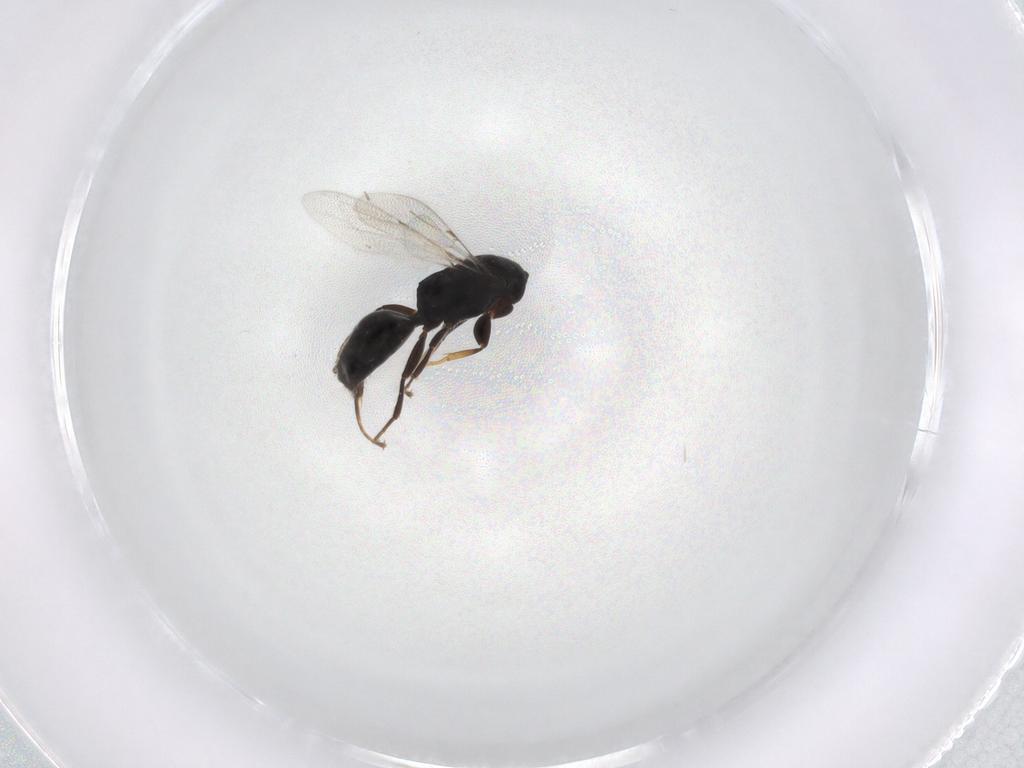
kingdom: Animalia
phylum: Arthropoda
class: Insecta
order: Hymenoptera
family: Bethylidae
